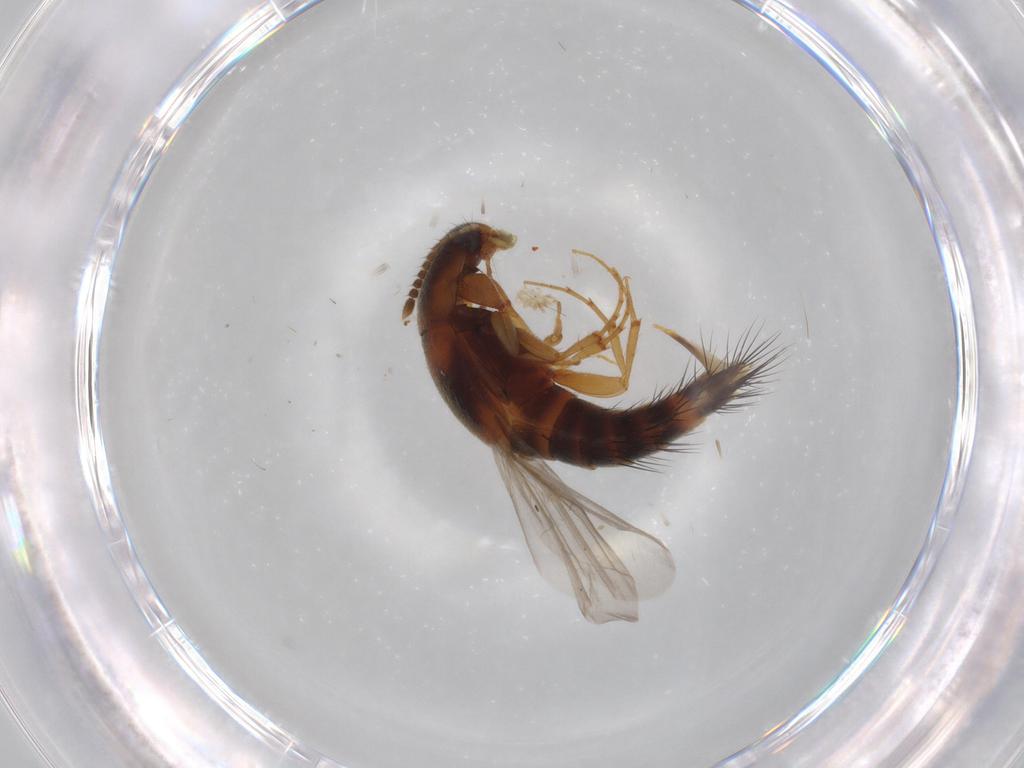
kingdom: Animalia
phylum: Arthropoda
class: Insecta
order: Coleoptera
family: Staphylinidae
